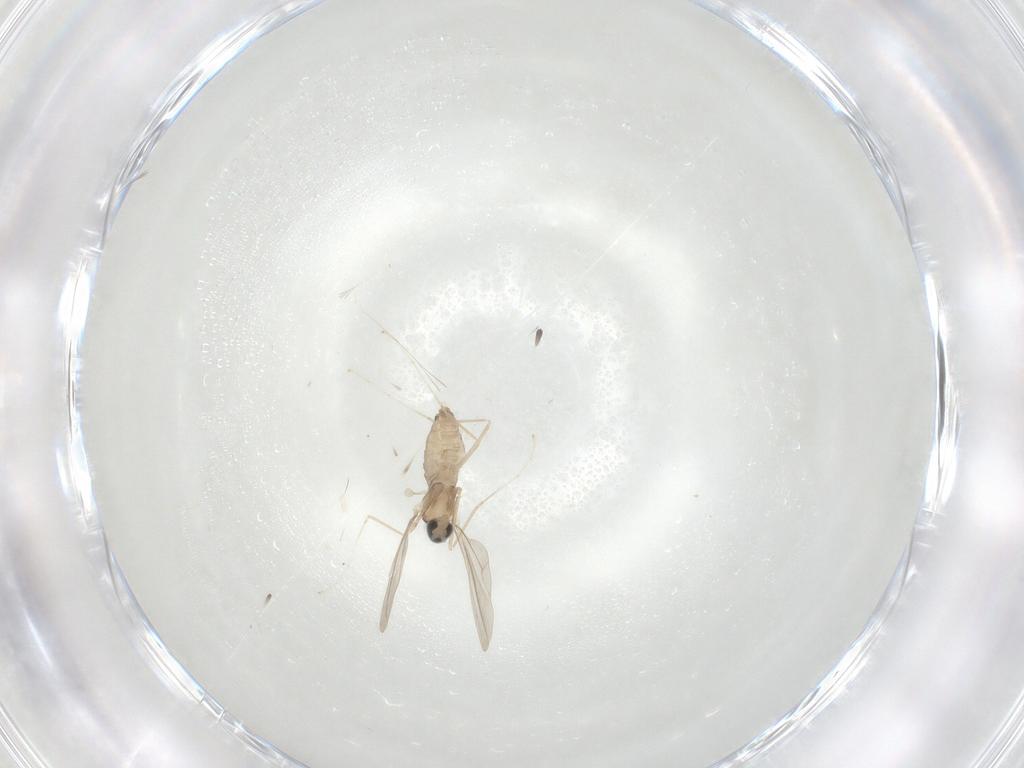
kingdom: Animalia
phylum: Arthropoda
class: Insecta
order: Diptera
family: Cecidomyiidae
